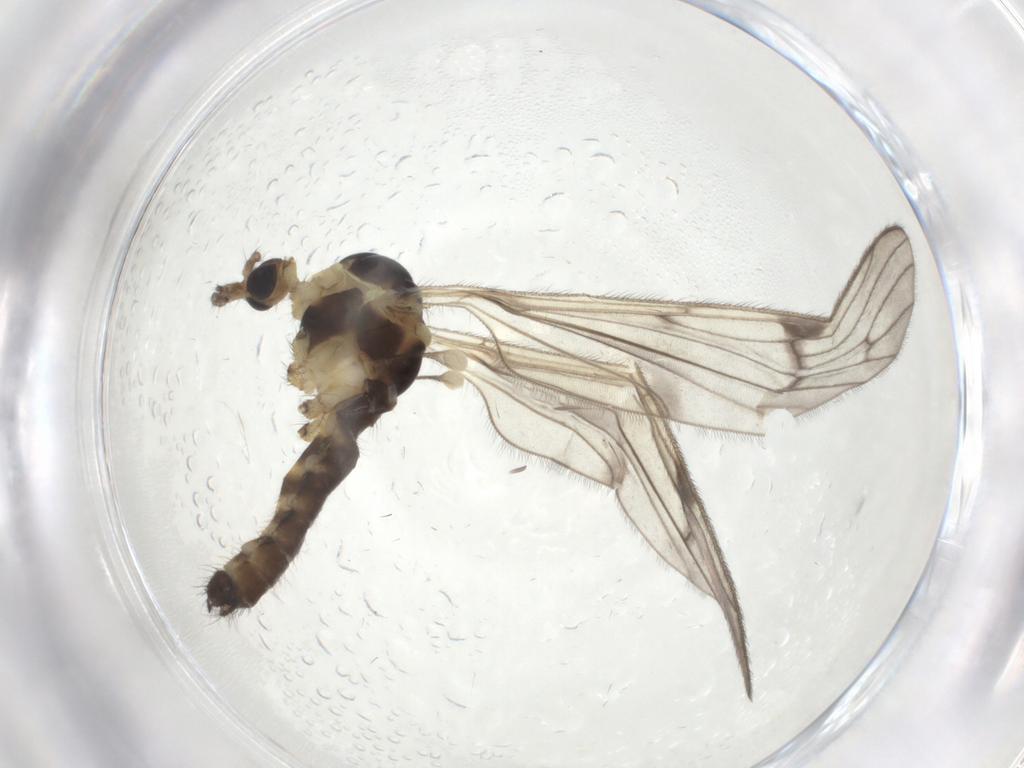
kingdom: Animalia
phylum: Arthropoda
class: Insecta
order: Diptera
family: Limoniidae
